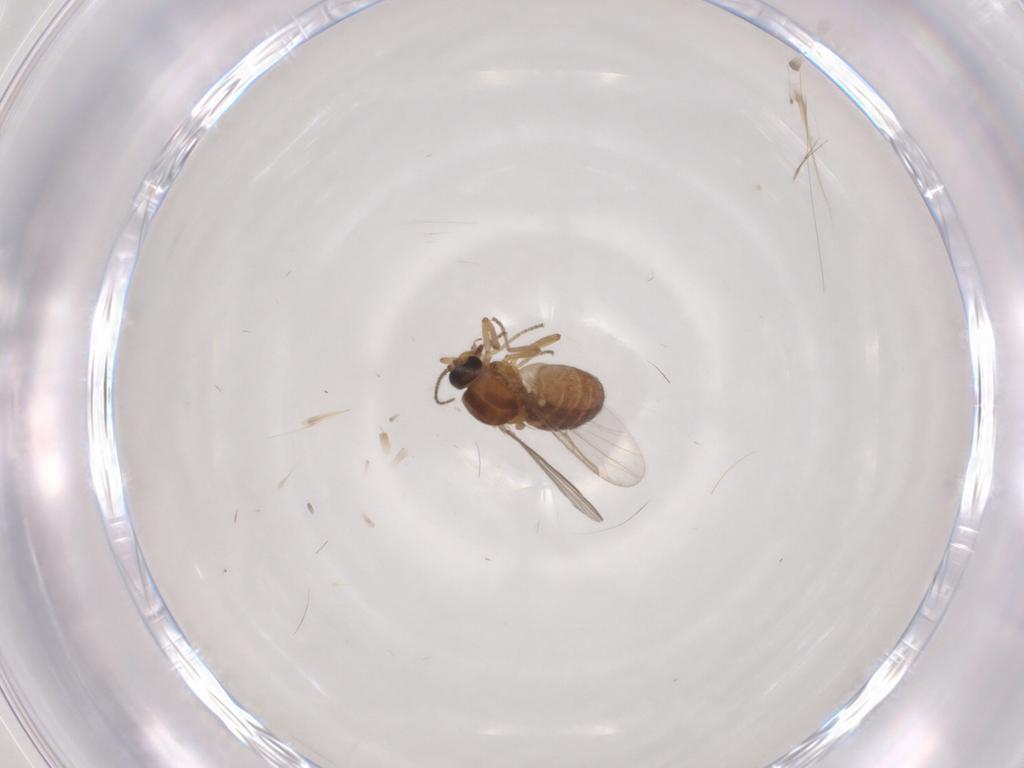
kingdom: Animalia
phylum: Arthropoda
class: Insecta
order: Diptera
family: Ceratopogonidae
